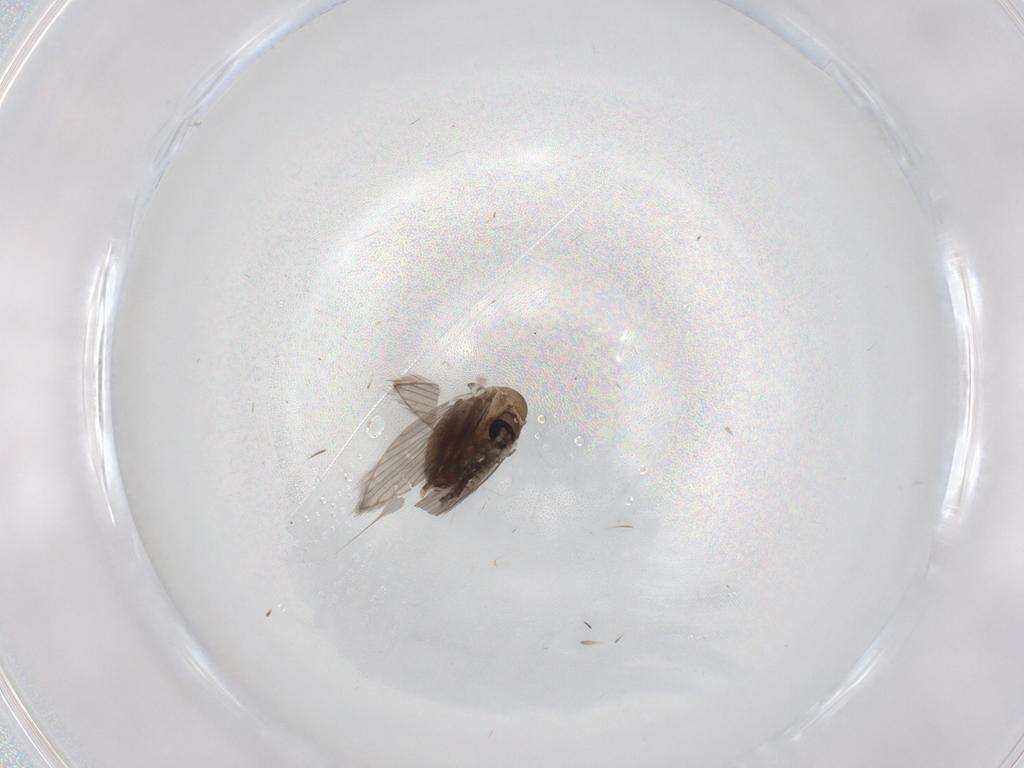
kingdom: Animalia
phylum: Arthropoda
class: Insecta
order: Diptera
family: Psychodidae
